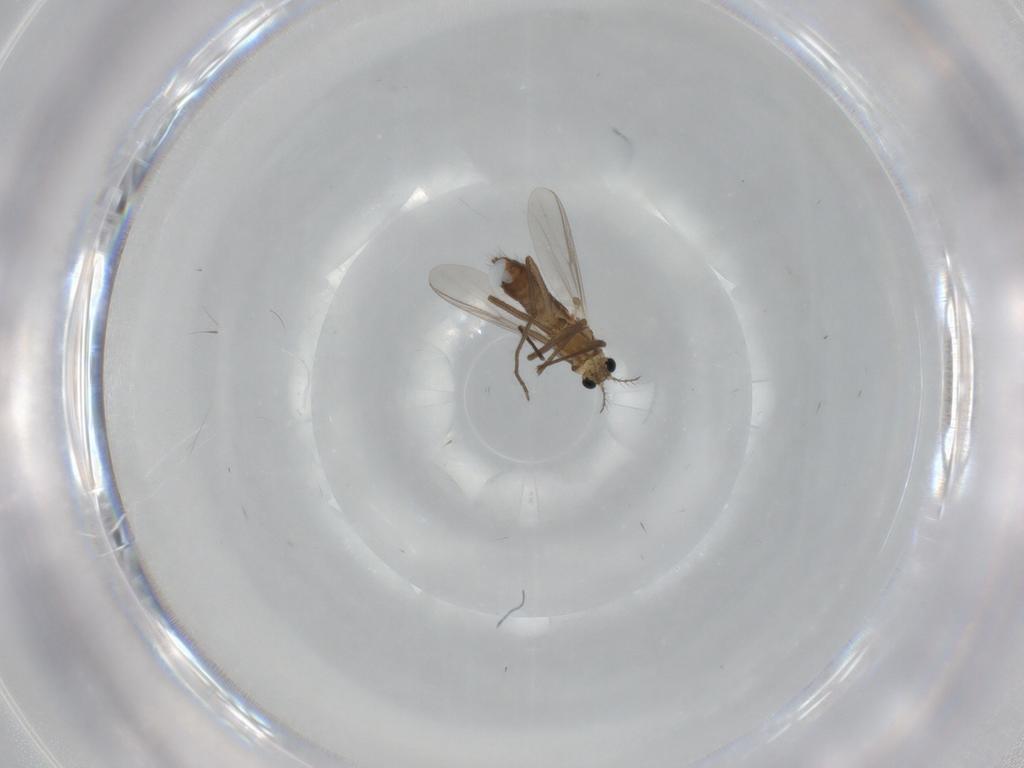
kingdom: Animalia
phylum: Arthropoda
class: Insecta
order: Diptera
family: Chironomidae
